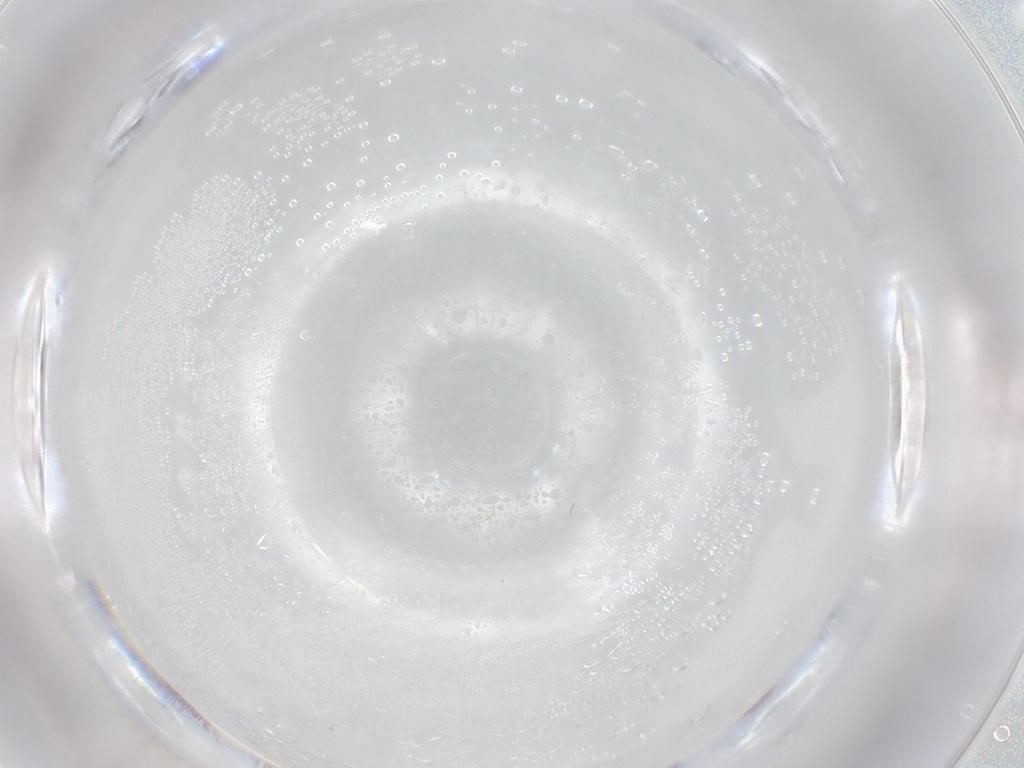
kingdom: Animalia
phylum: Arthropoda
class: Insecta
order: Diptera
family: Cecidomyiidae
